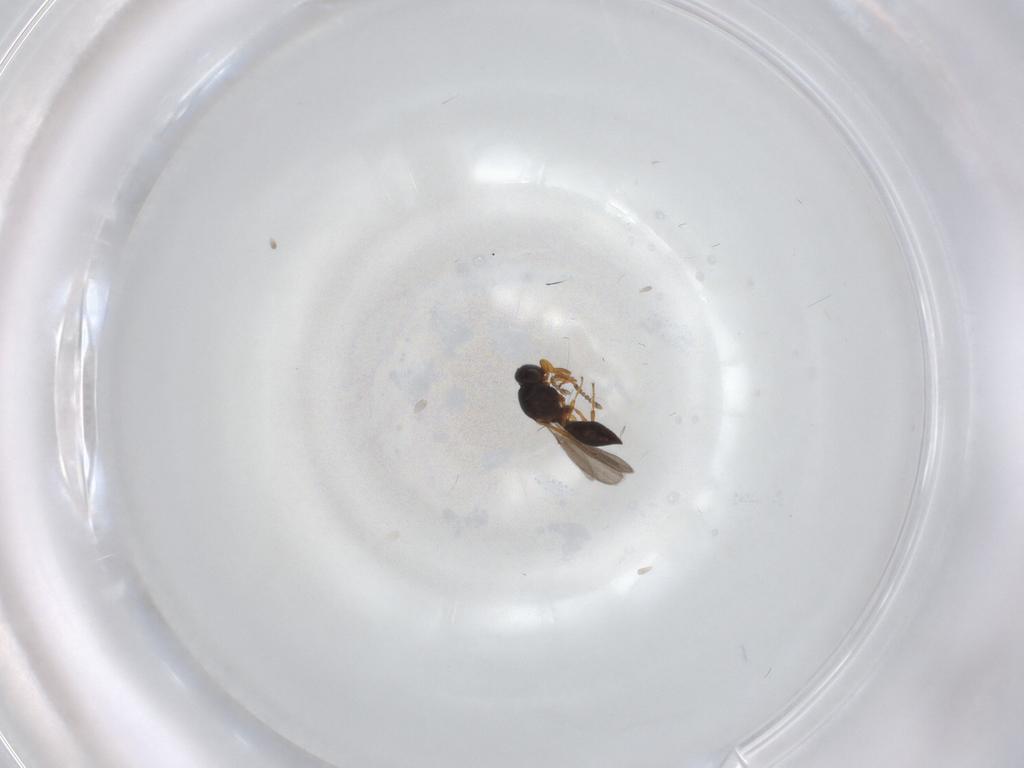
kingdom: Animalia
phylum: Arthropoda
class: Insecta
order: Hymenoptera
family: Platygastridae
